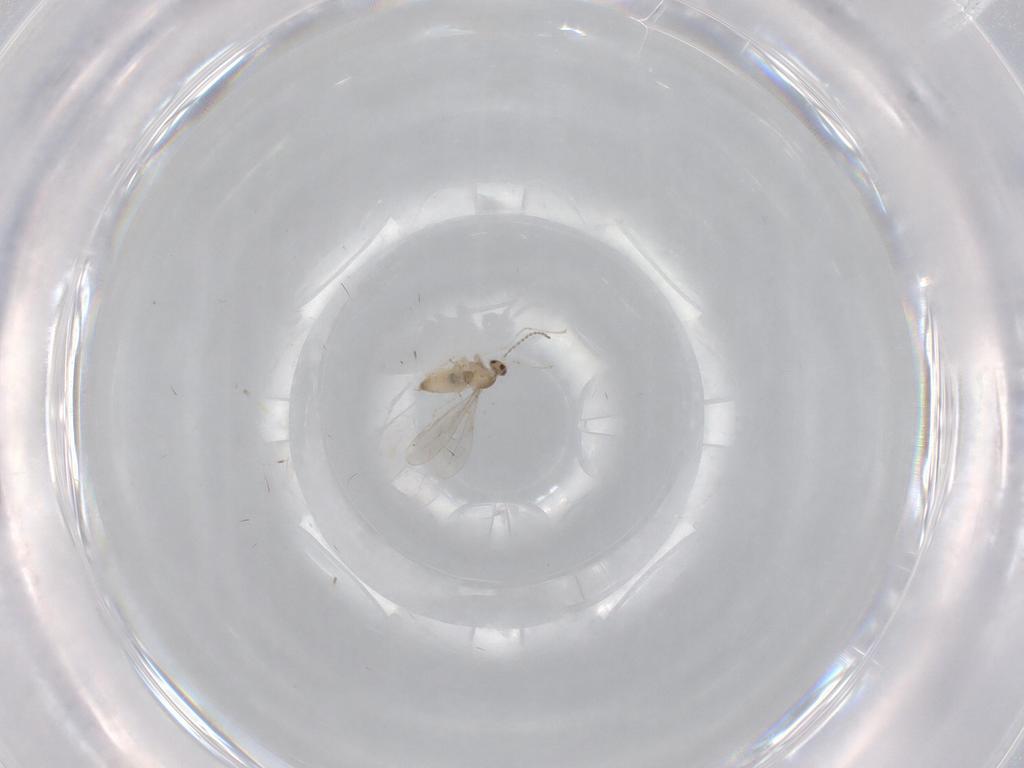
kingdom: Animalia
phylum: Arthropoda
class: Insecta
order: Diptera
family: Cecidomyiidae
